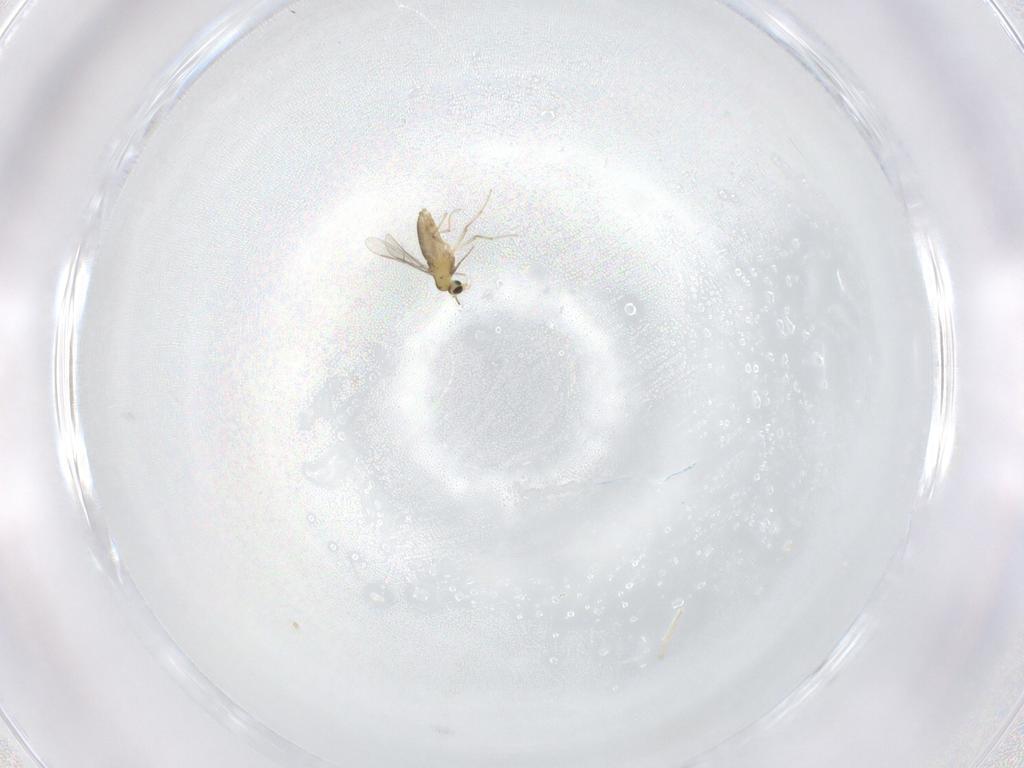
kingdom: Animalia
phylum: Arthropoda
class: Insecta
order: Diptera
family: Chironomidae
